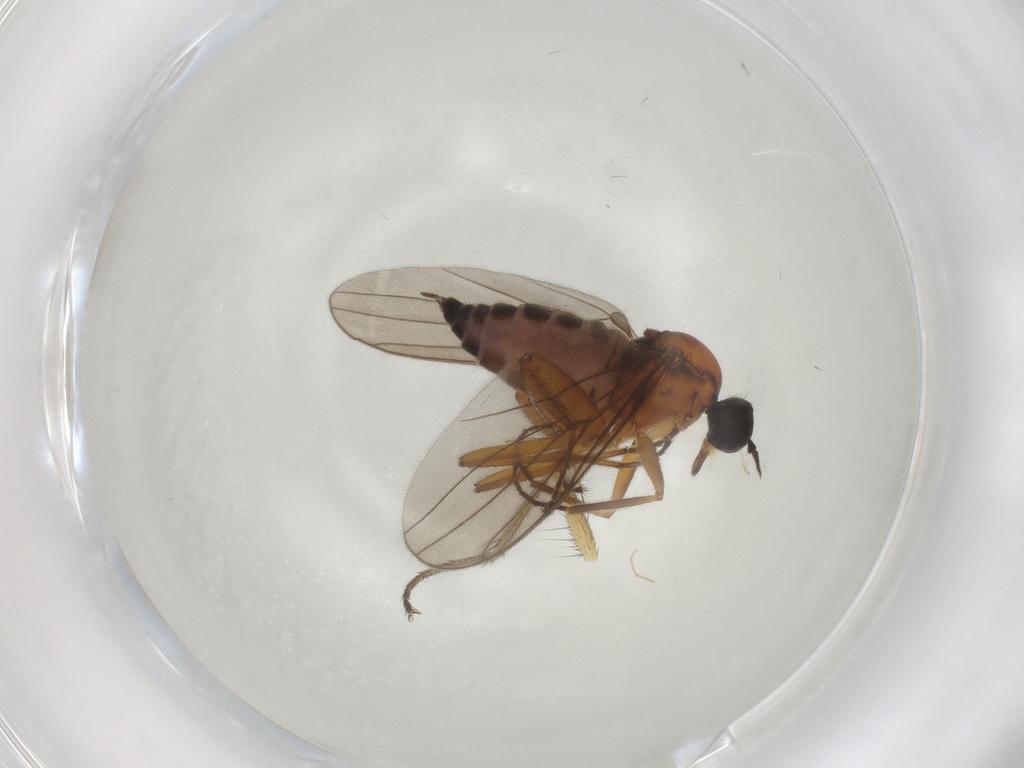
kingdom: Animalia
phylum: Arthropoda
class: Insecta
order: Diptera
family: Hybotidae
